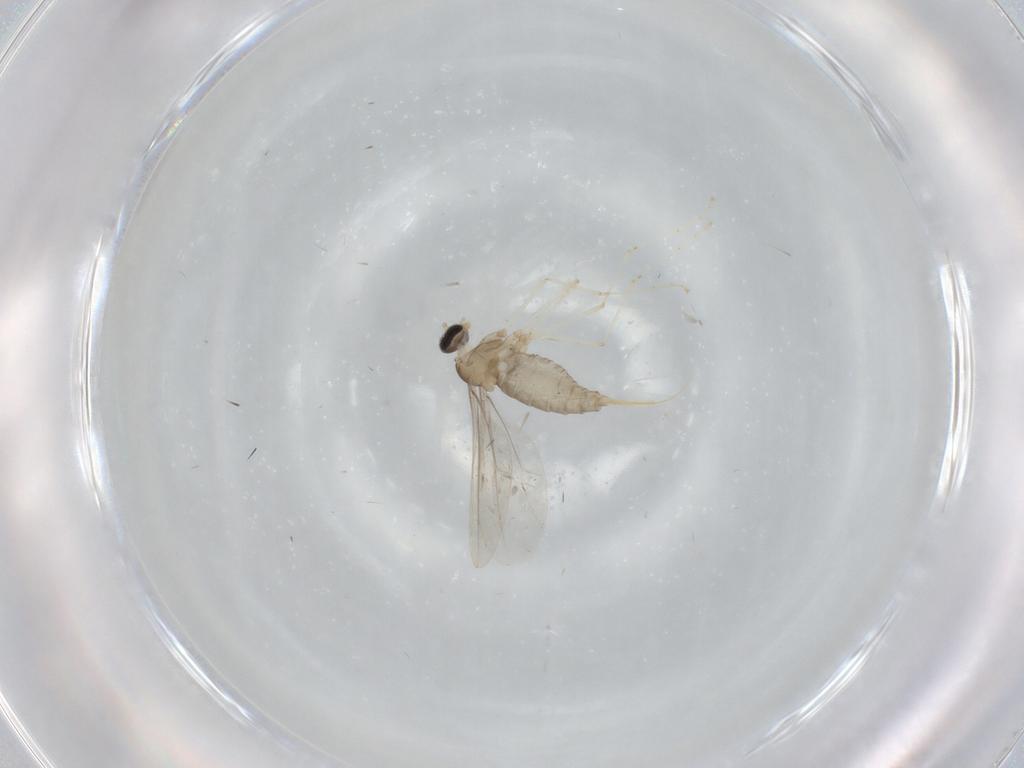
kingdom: Animalia
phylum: Arthropoda
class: Insecta
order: Diptera
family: Cecidomyiidae
